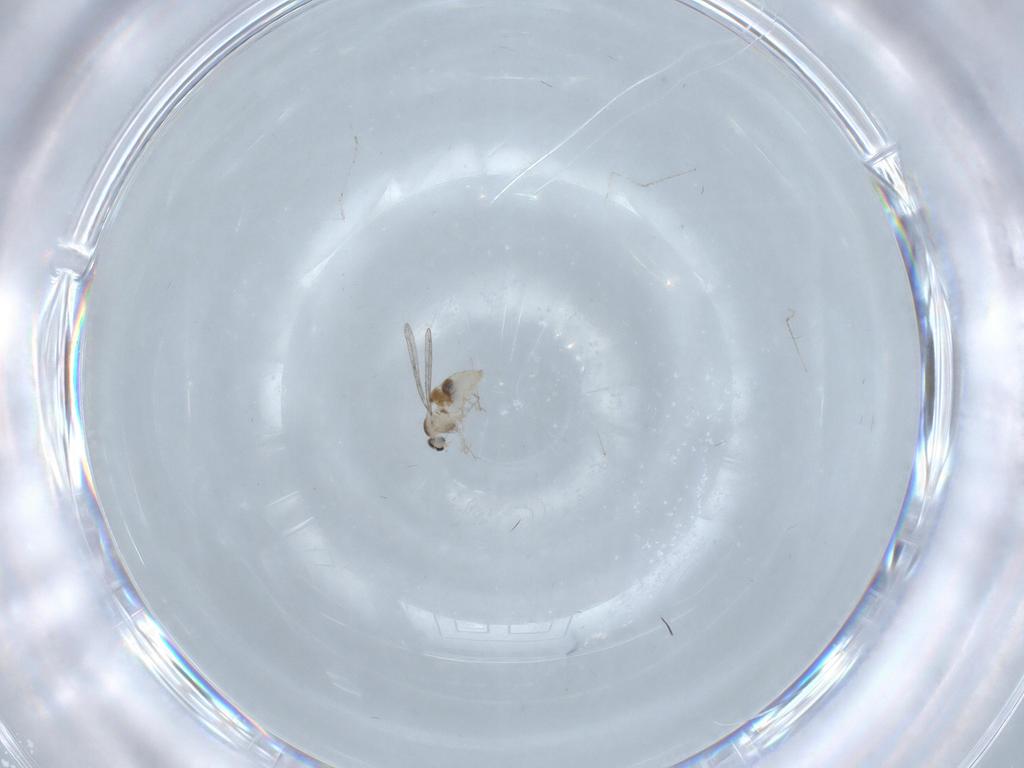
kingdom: Animalia
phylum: Arthropoda
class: Insecta
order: Diptera
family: Cecidomyiidae
